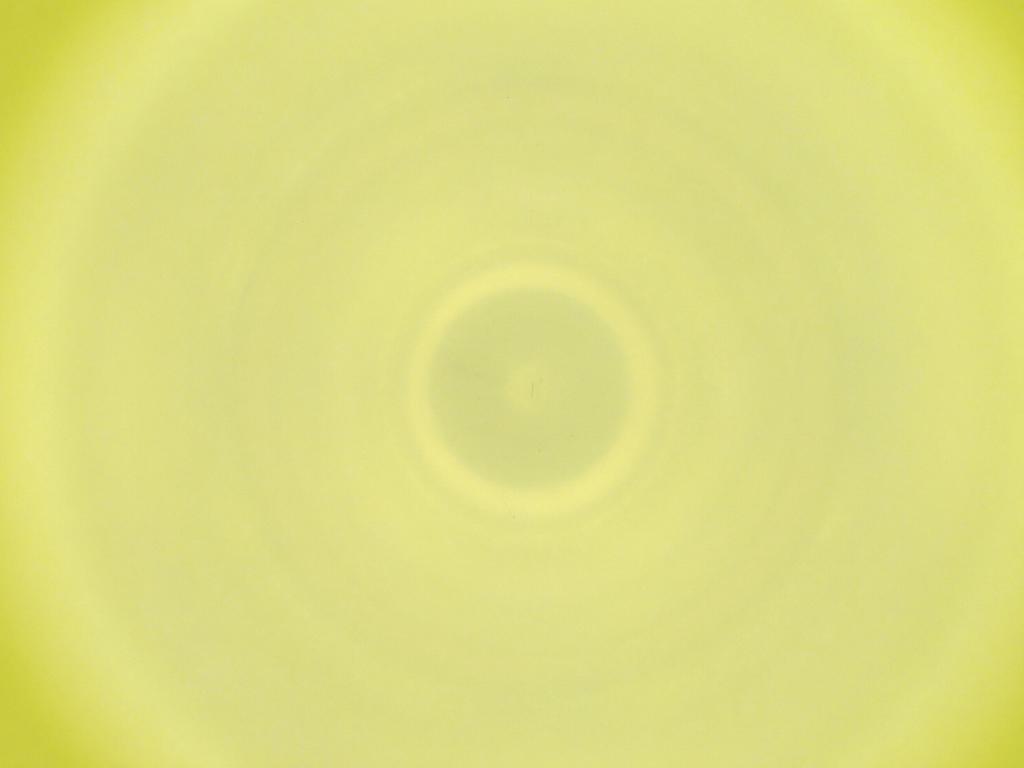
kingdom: Animalia
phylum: Arthropoda
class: Insecta
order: Diptera
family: Cecidomyiidae
